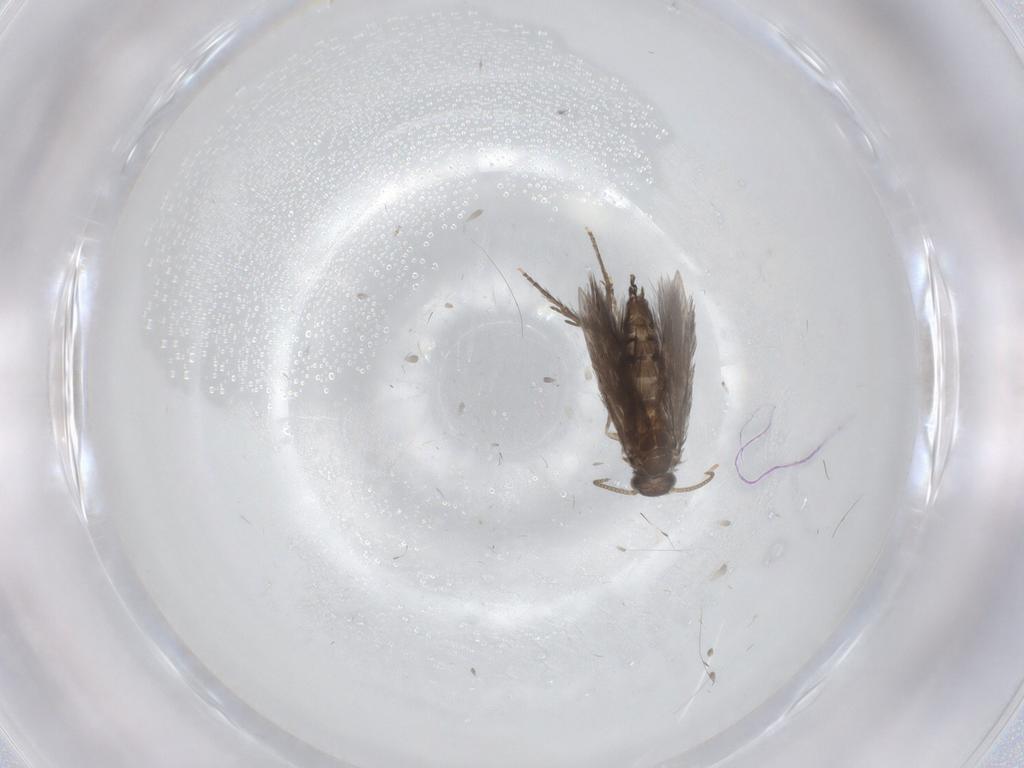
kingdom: Animalia
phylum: Arthropoda
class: Insecta
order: Trichoptera
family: Hydroptilidae
